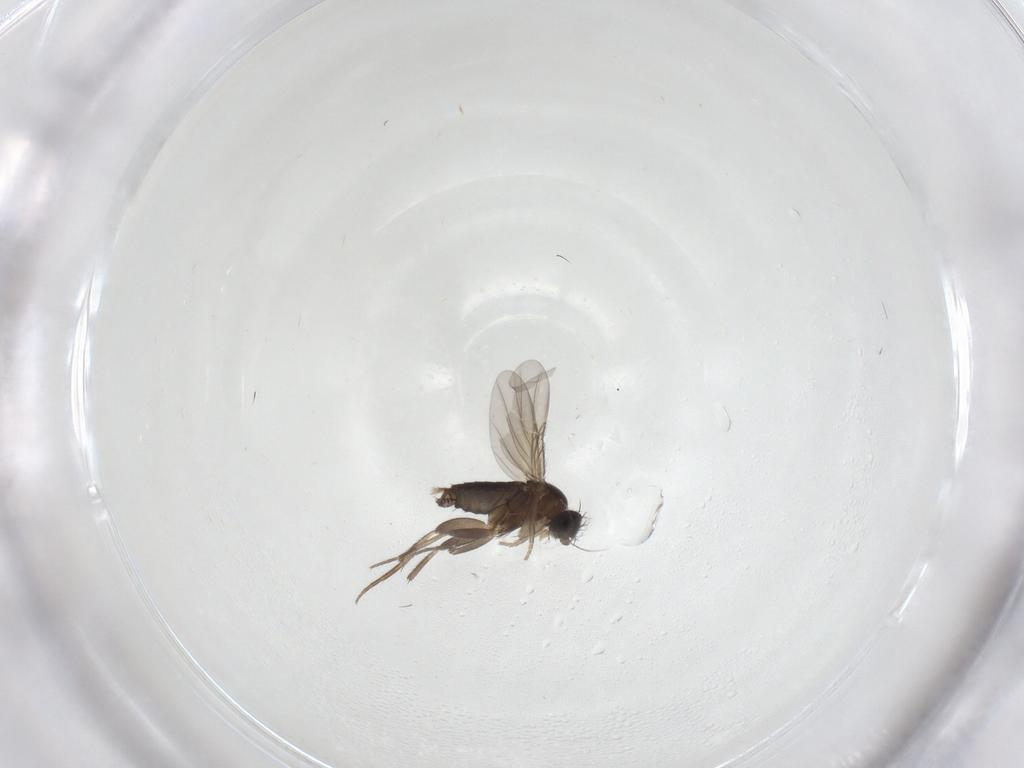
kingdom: Animalia
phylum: Arthropoda
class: Insecta
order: Diptera
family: Phoridae
